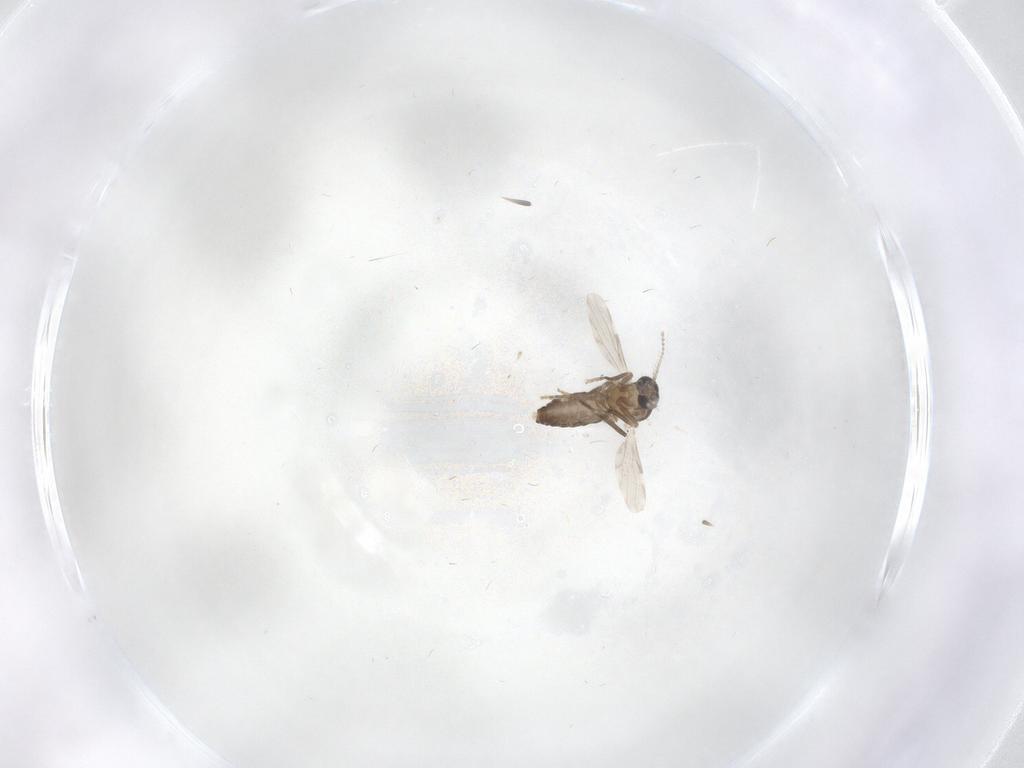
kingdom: Animalia
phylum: Arthropoda
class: Insecta
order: Diptera
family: Ceratopogonidae
